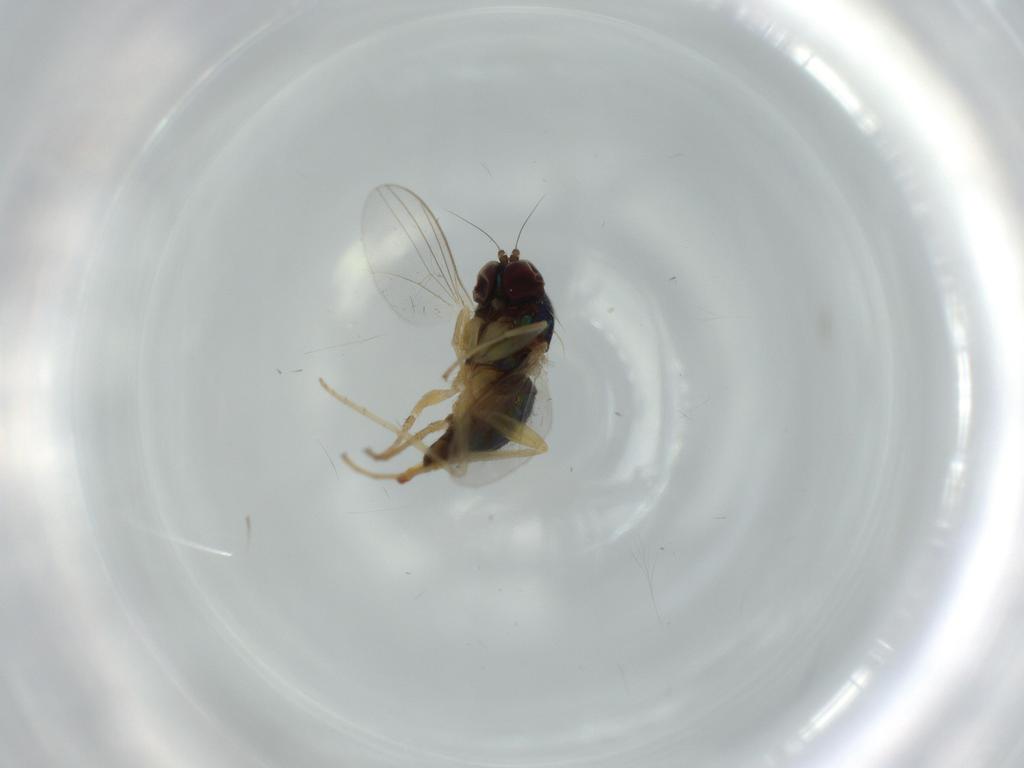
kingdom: Animalia
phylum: Arthropoda
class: Insecta
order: Diptera
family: Dolichopodidae
